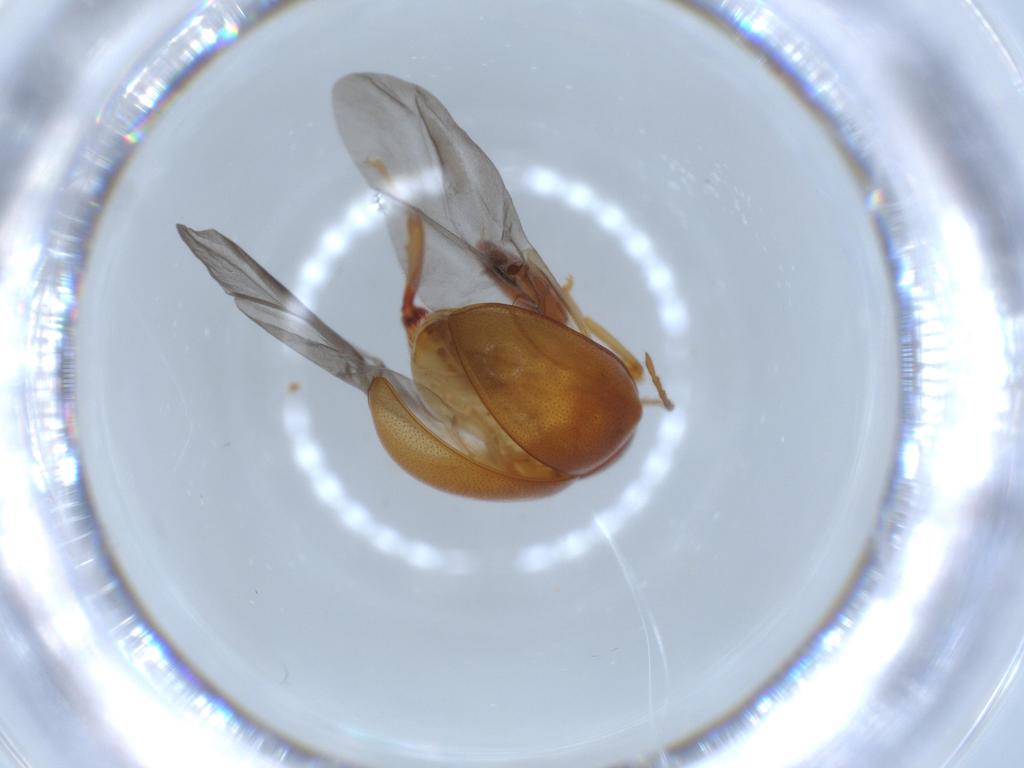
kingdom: Animalia
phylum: Arthropoda
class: Insecta
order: Coleoptera
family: Chrysomelidae
